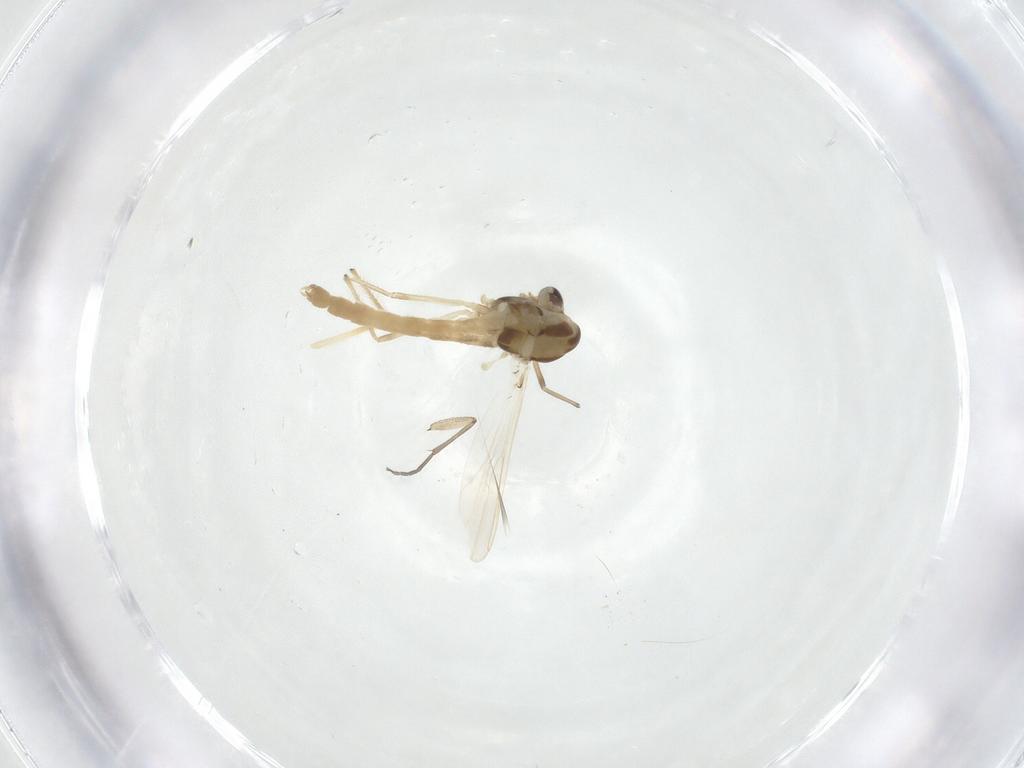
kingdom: Animalia
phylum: Arthropoda
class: Insecta
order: Diptera
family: Chironomidae
